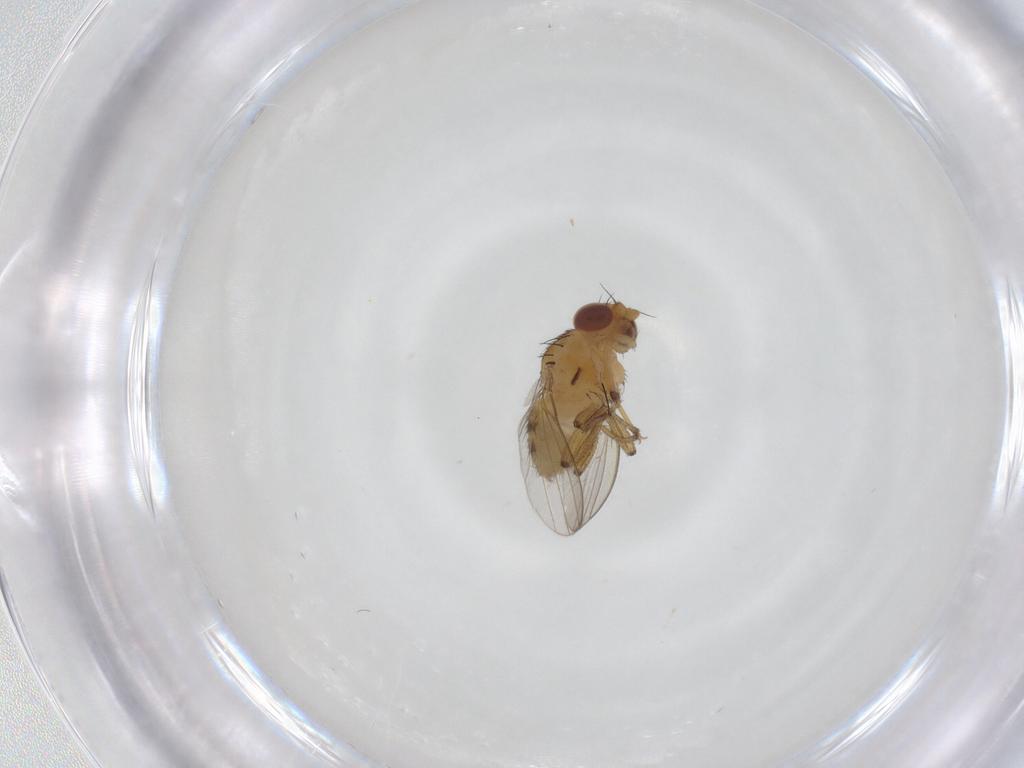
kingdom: Animalia
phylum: Arthropoda
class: Insecta
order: Diptera
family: Milichiidae
